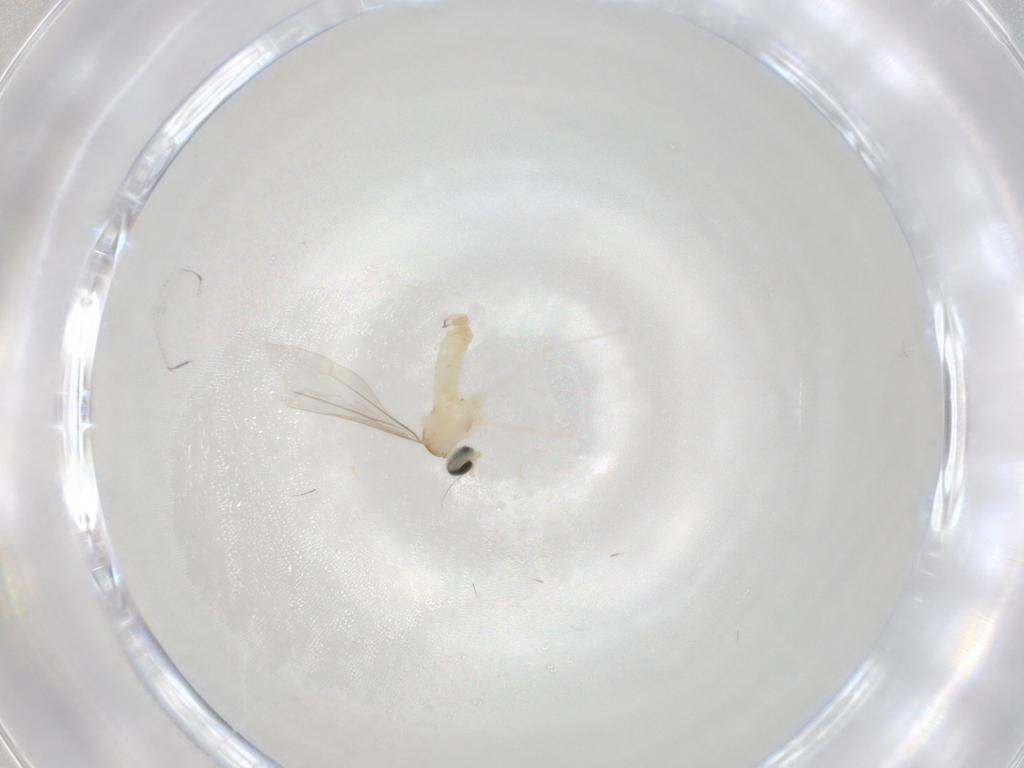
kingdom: Animalia
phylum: Arthropoda
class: Insecta
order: Diptera
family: Cecidomyiidae
